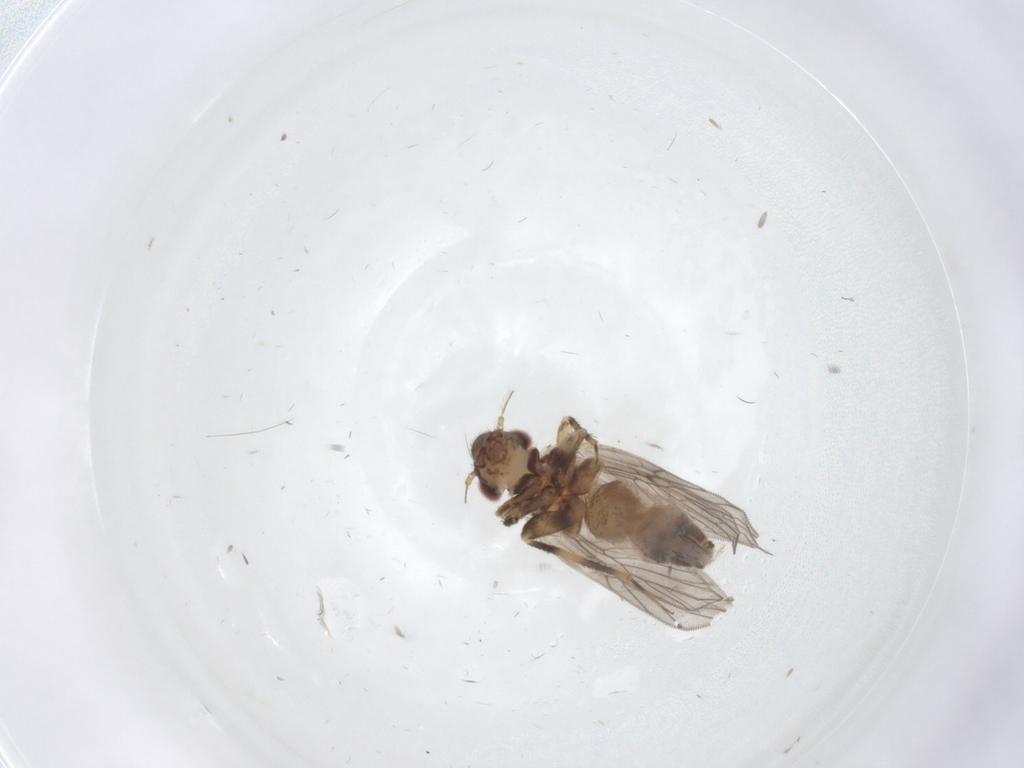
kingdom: Animalia
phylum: Arthropoda
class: Insecta
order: Psocodea
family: Lepidopsocidae
